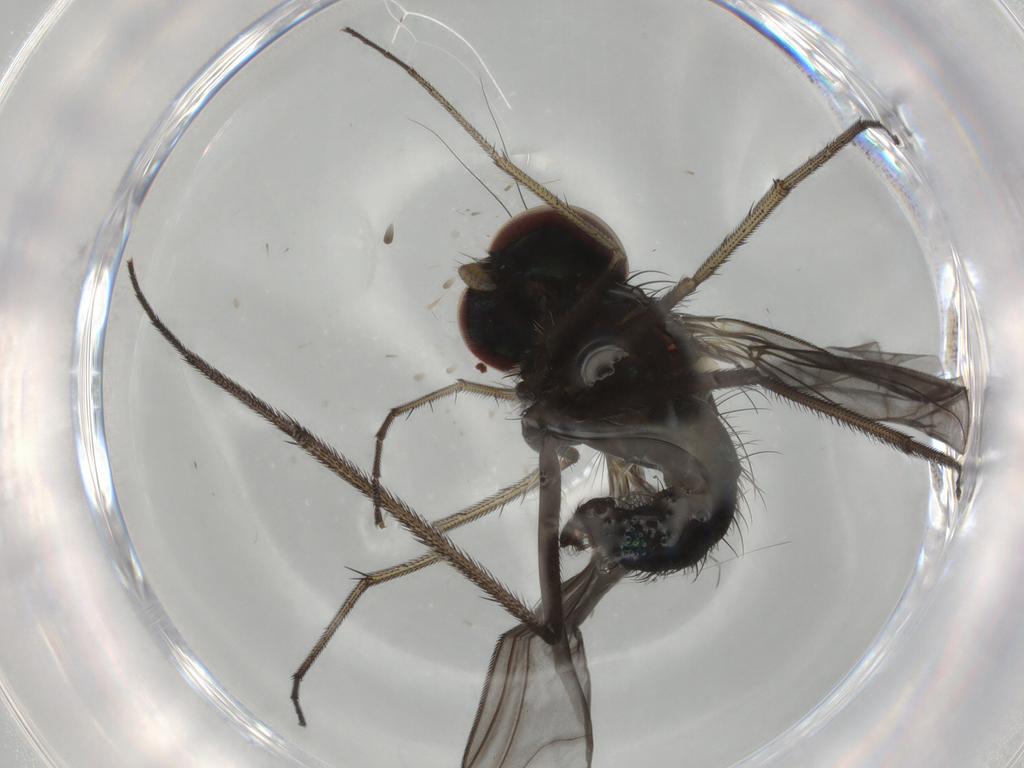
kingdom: Animalia
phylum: Arthropoda
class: Insecta
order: Diptera
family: Dolichopodidae
